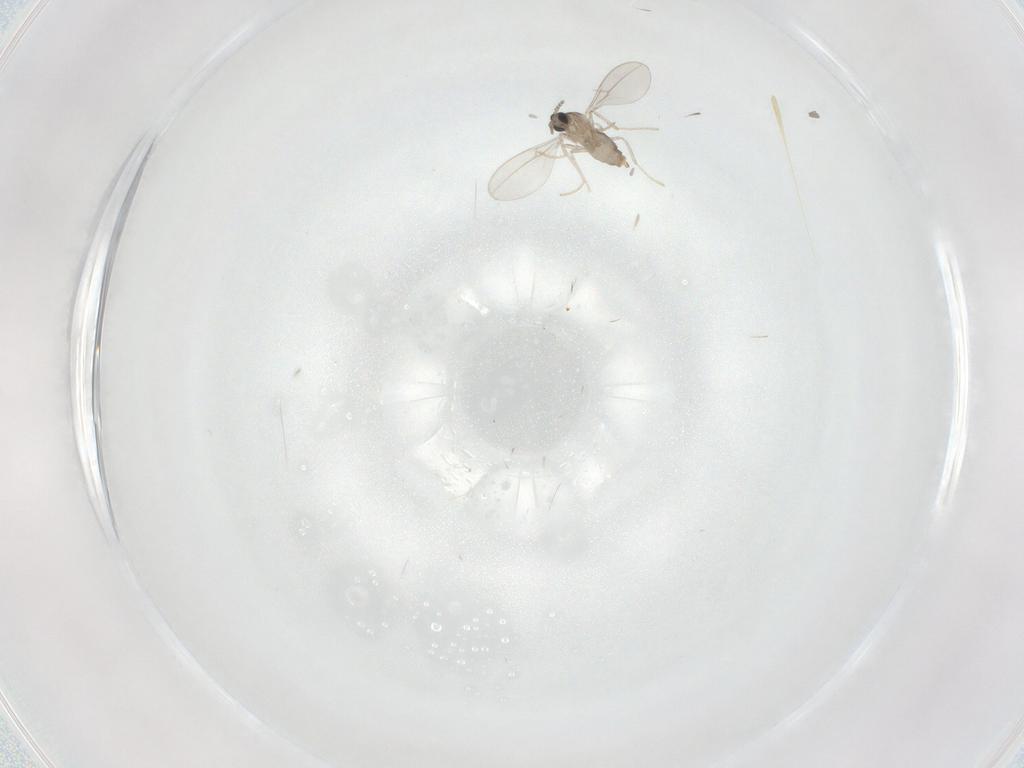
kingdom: Animalia
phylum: Arthropoda
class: Insecta
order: Diptera
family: Cecidomyiidae
